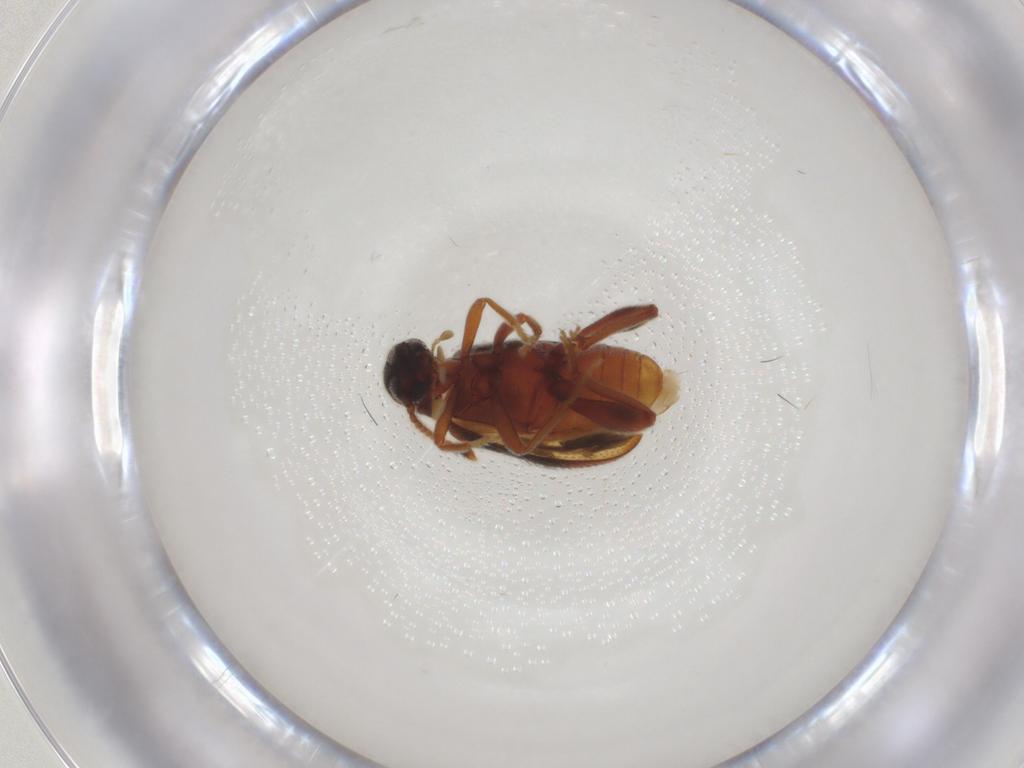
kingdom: Animalia
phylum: Arthropoda
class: Insecta
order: Coleoptera
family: Aderidae
